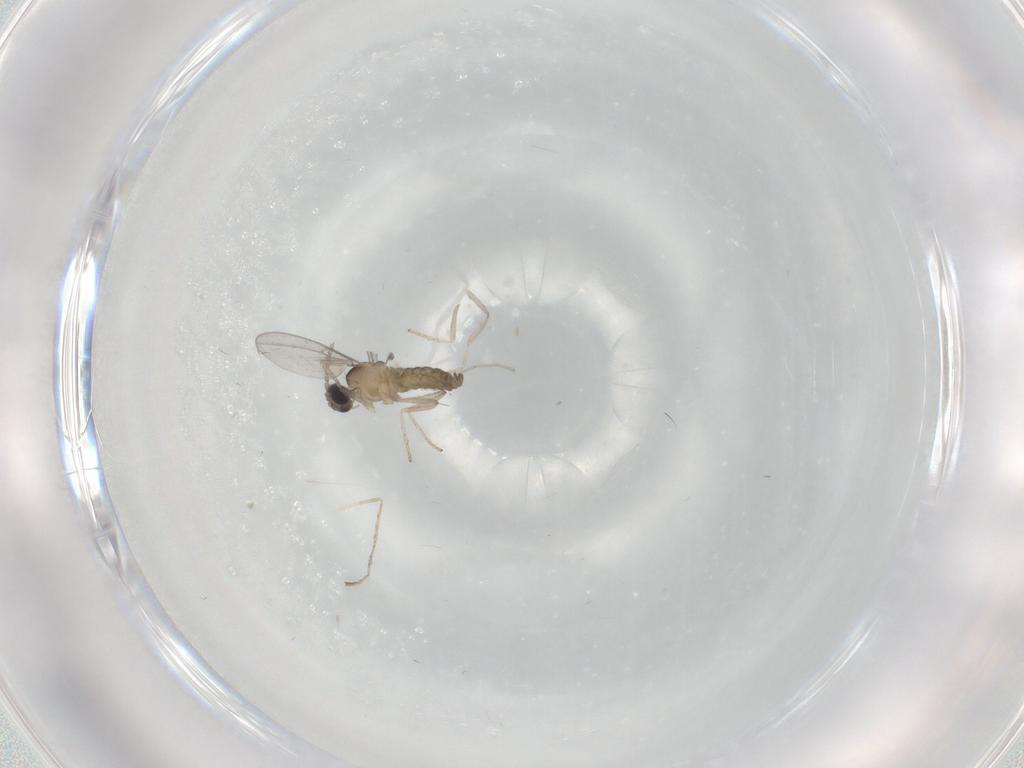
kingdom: Animalia
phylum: Arthropoda
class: Insecta
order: Diptera
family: Cecidomyiidae
